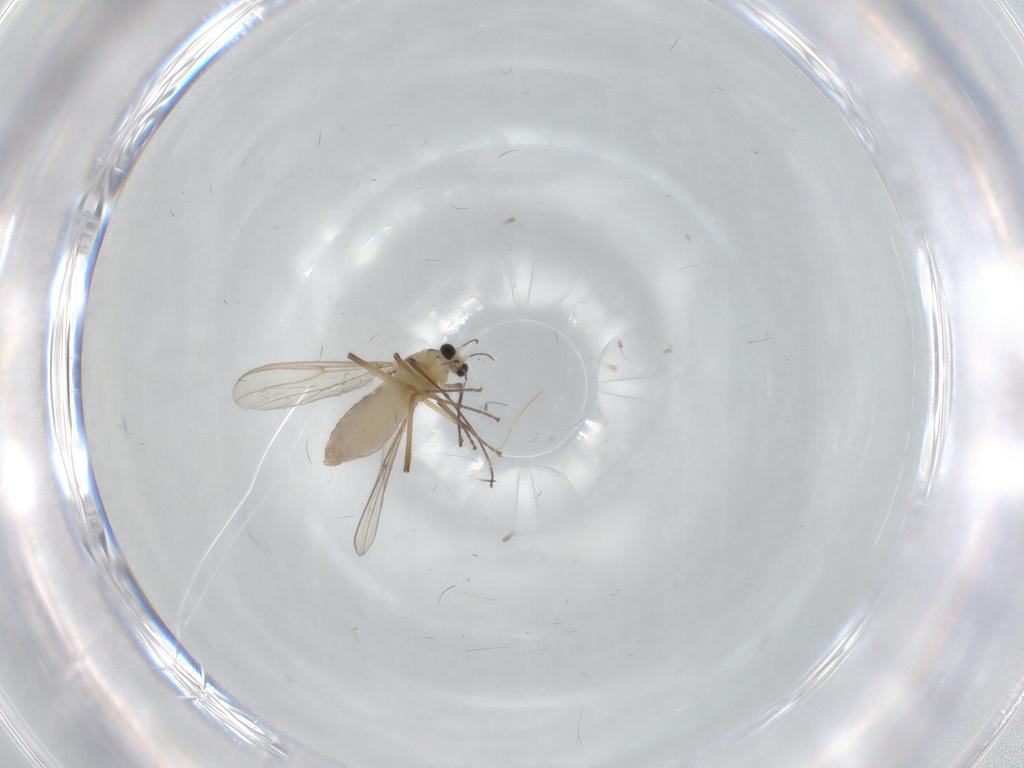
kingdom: Animalia
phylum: Arthropoda
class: Insecta
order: Diptera
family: Chironomidae
